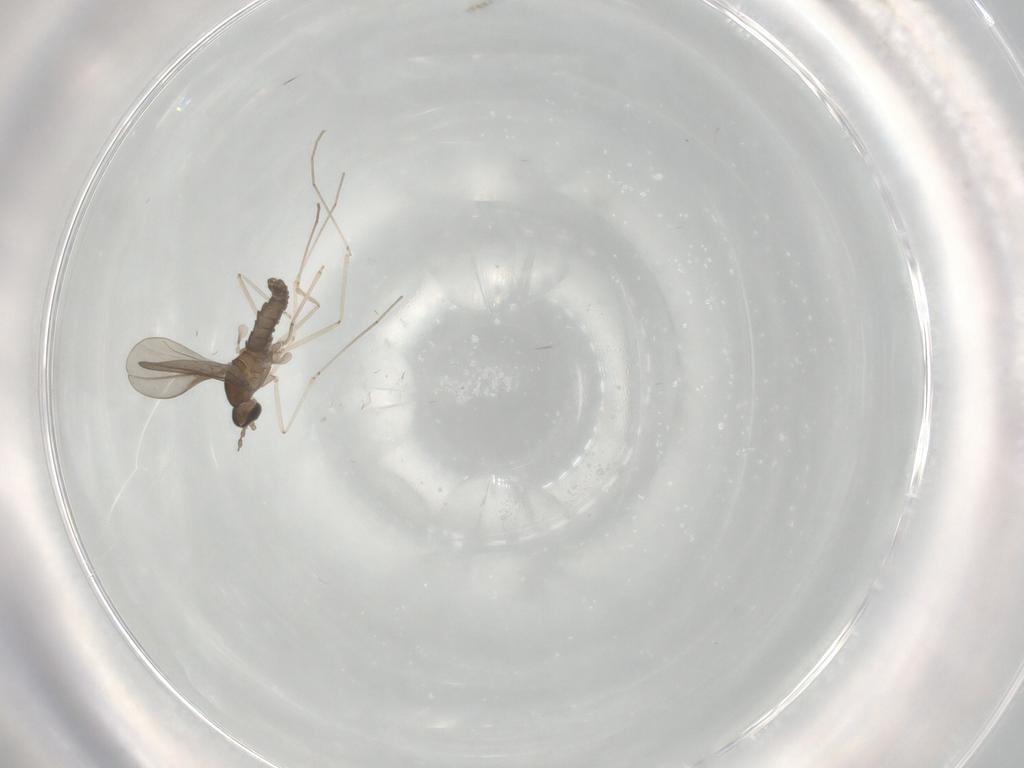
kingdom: Animalia
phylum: Arthropoda
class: Insecta
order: Diptera
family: Cecidomyiidae
